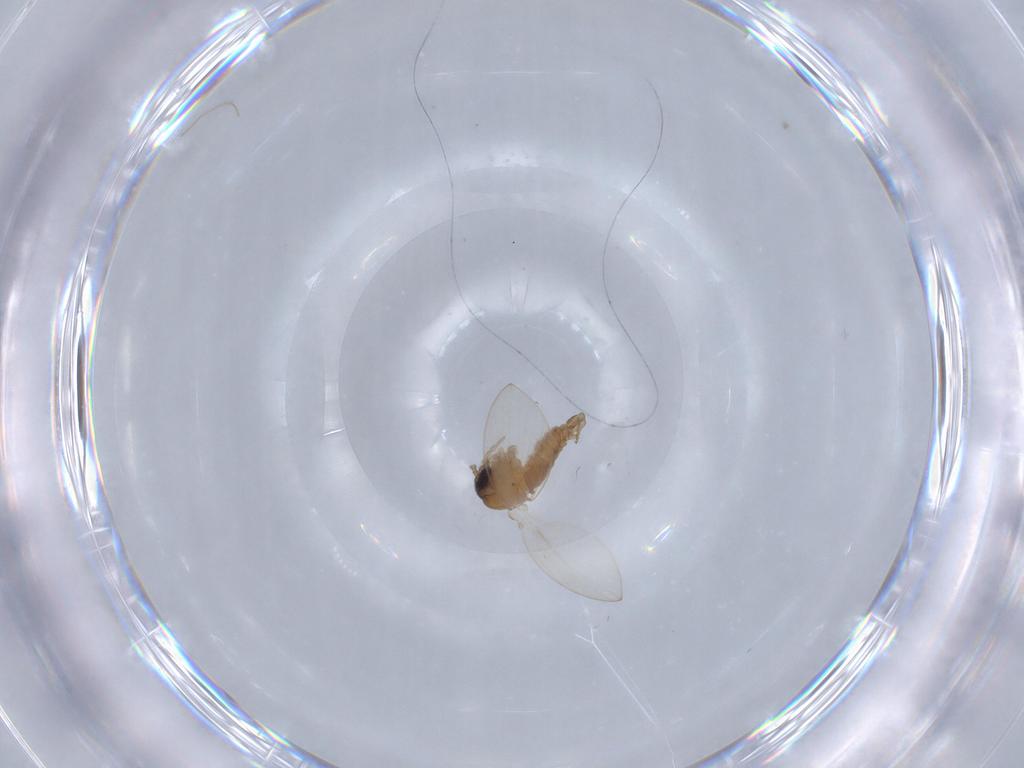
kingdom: Animalia
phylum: Arthropoda
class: Insecta
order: Diptera
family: Psychodidae
